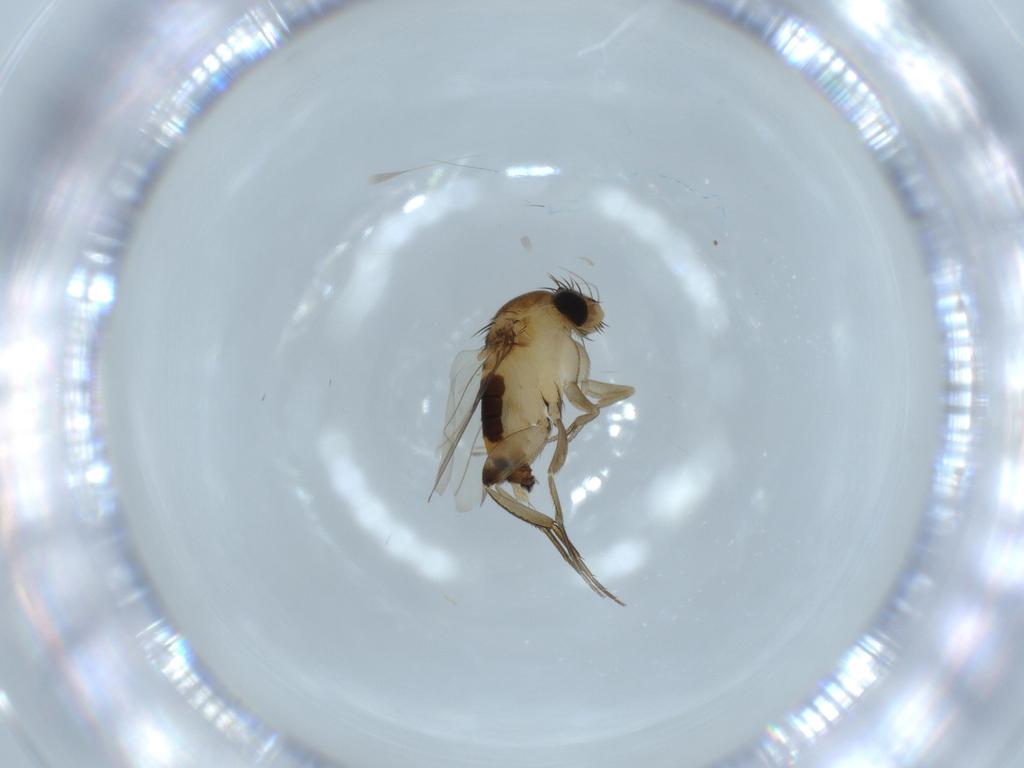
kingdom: Animalia
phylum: Arthropoda
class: Insecta
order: Diptera
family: Phoridae
